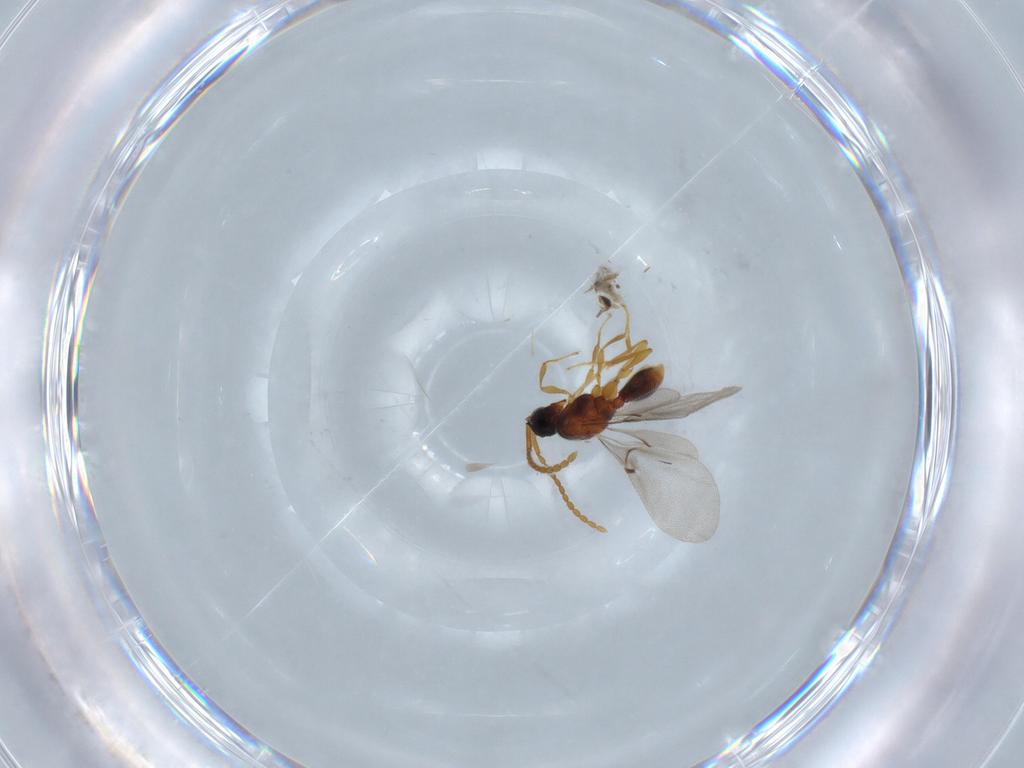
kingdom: Animalia
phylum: Arthropoda
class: Insecta
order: Hymenoptera
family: Thynnidae
